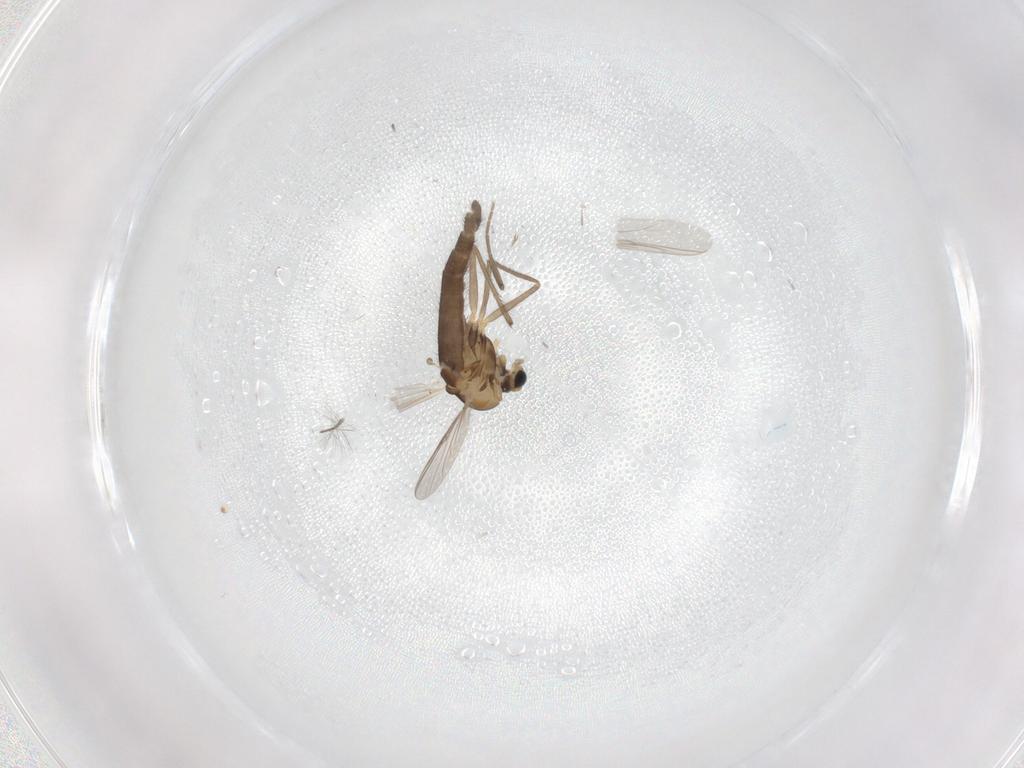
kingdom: Animalia
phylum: Arthropoda
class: Insecta
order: Diptera
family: Chironomidae
